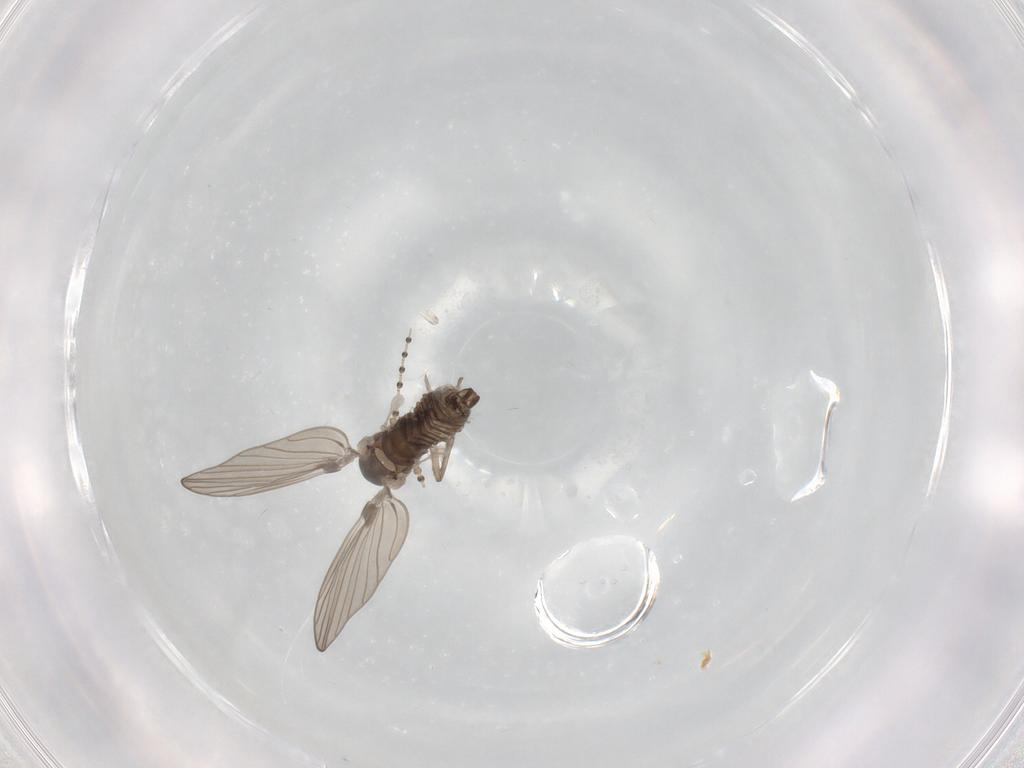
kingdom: Animalia
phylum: Arthropoda
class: Insecta
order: Diptera
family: Psychodidae
